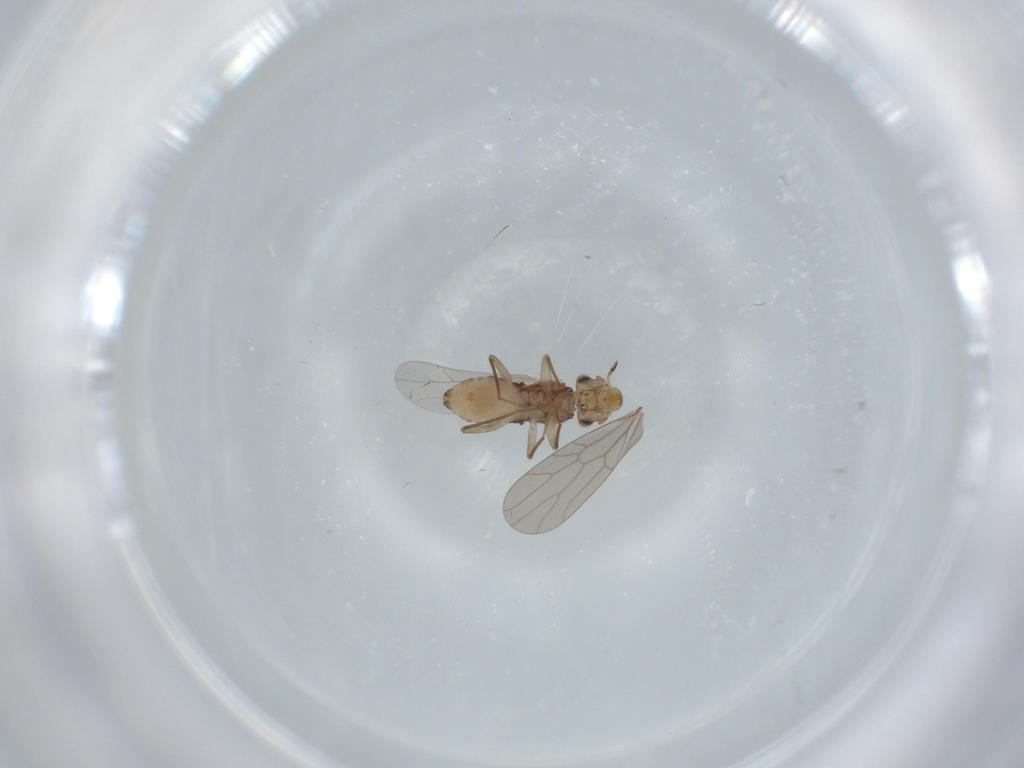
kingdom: Animalia
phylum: Arthropoda
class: Insecta
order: Psocodea
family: Lepidopsocidae
